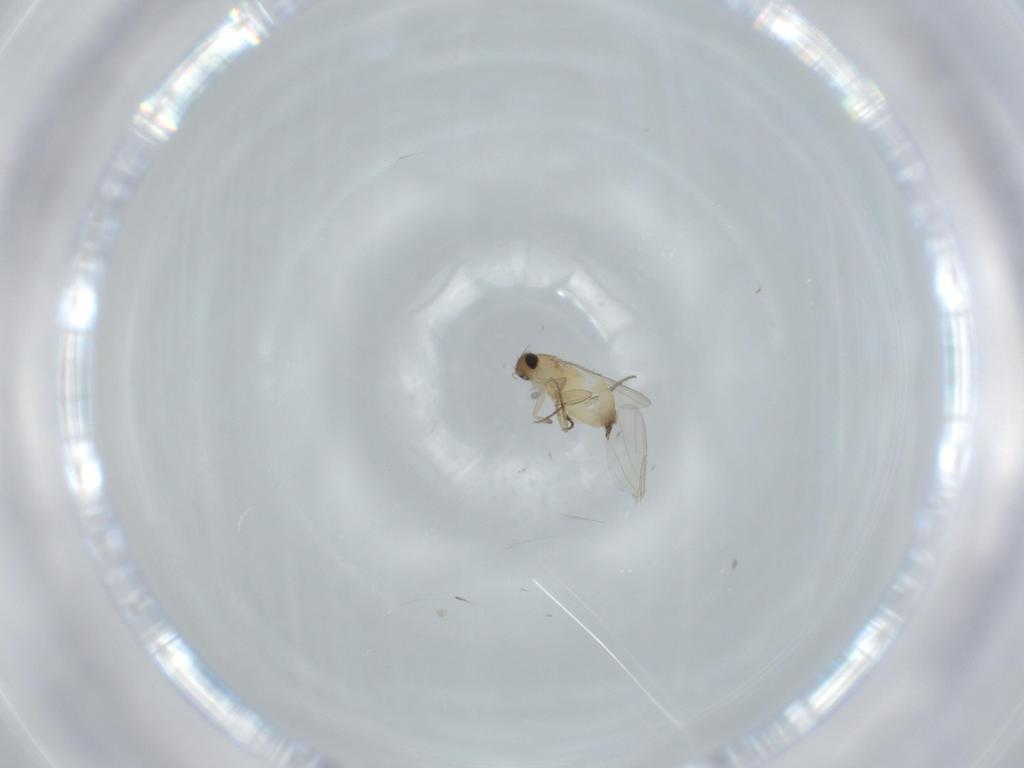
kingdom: Animalia
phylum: Arthropoda
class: Insecta
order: Diptera
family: Phoridae
